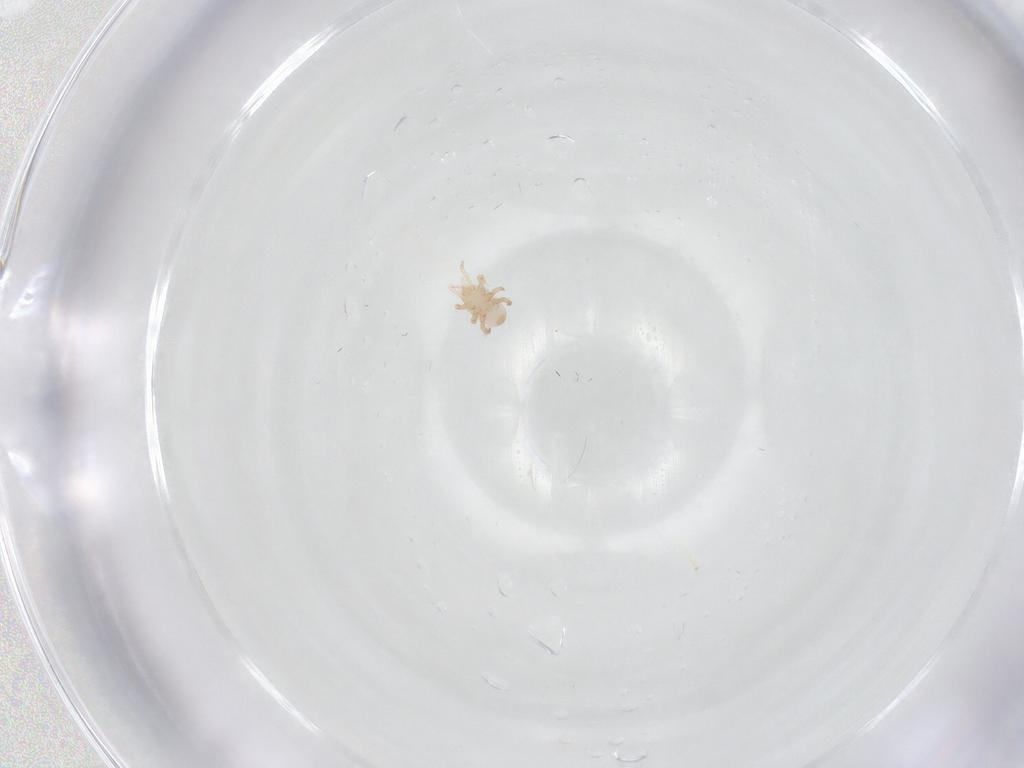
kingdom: Animalia
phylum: Arthropoda
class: Arachnida
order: Mesostigmata
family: Halolaelapidae
